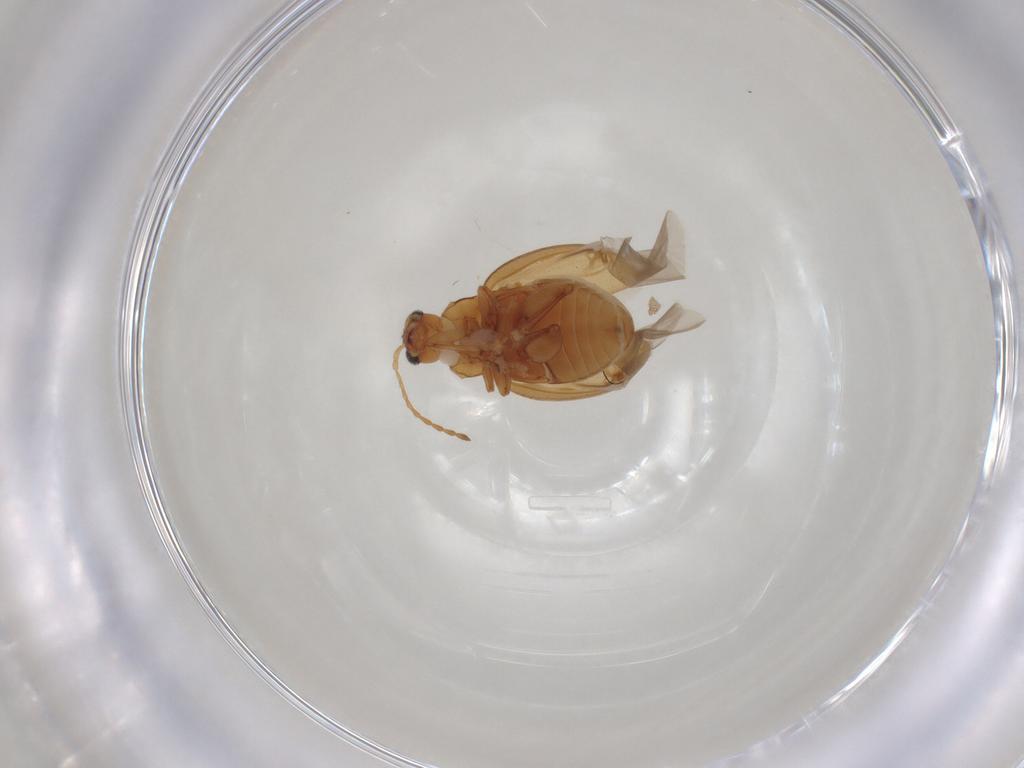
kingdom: Animalia
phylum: Arthropoda
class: Insecta
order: Coleoptera
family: Chrysomelidae
